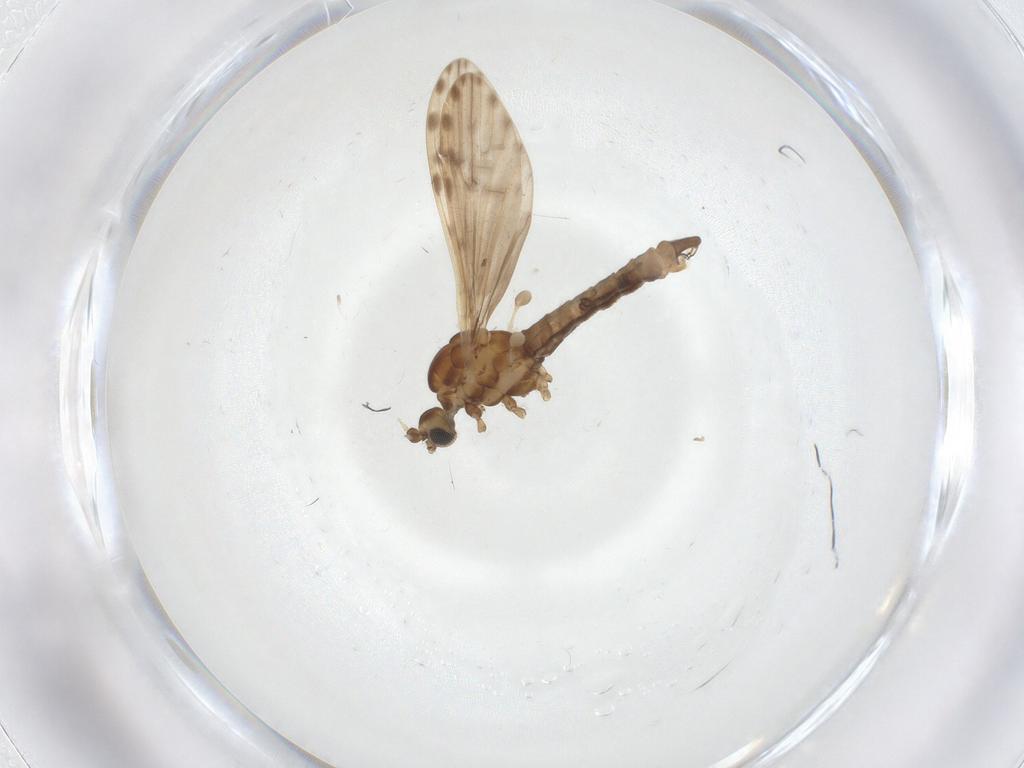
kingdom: Animalia
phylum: Arthropoda
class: Insecta
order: Diptera
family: Ceratopogonidae
